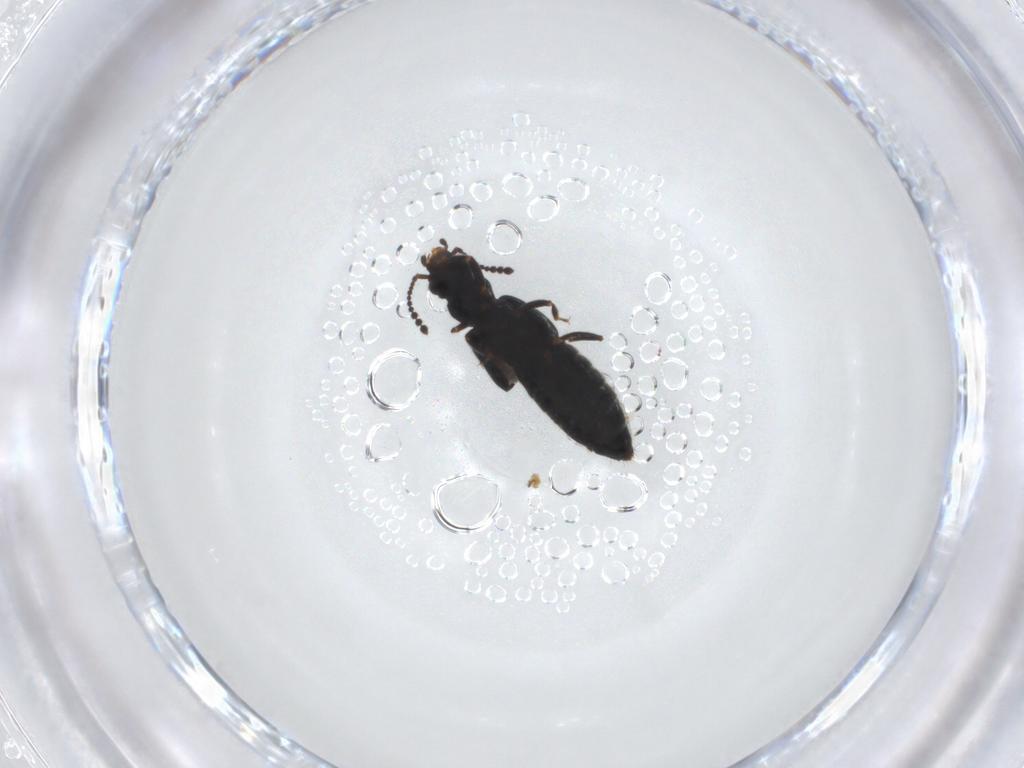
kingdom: Animalia
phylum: Arthropoda
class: Insecta
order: Coleoptera
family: Staphylinidae
